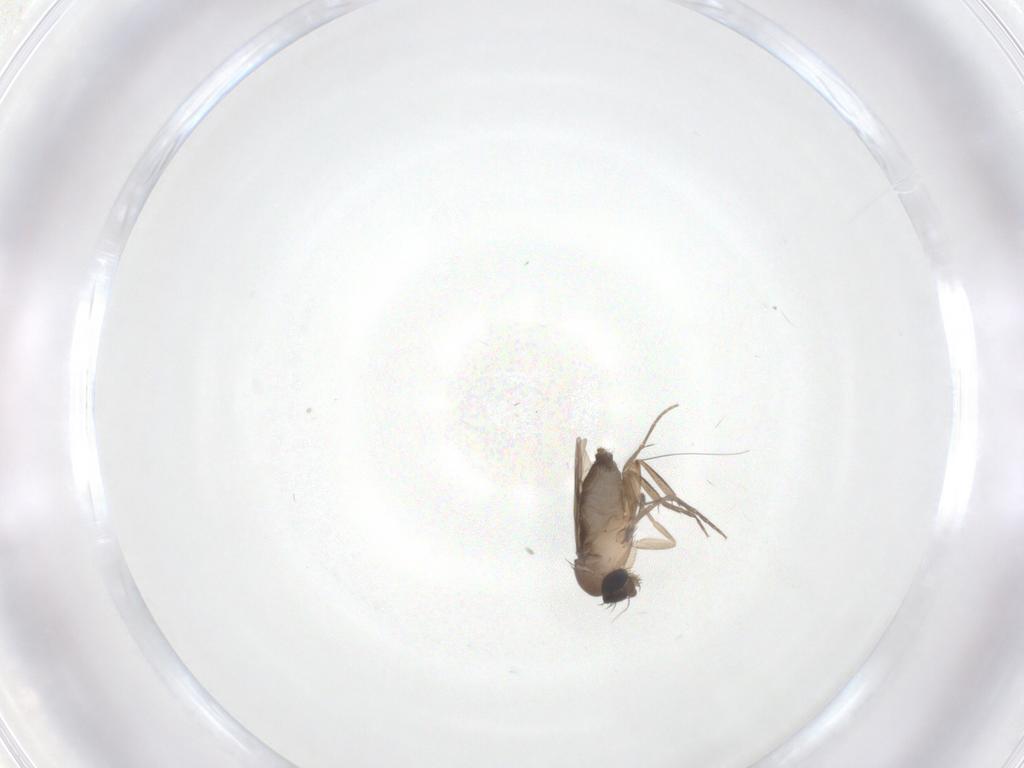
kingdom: Animalia
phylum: Arthropoda
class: Insecta
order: Diptera
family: Phoridae
